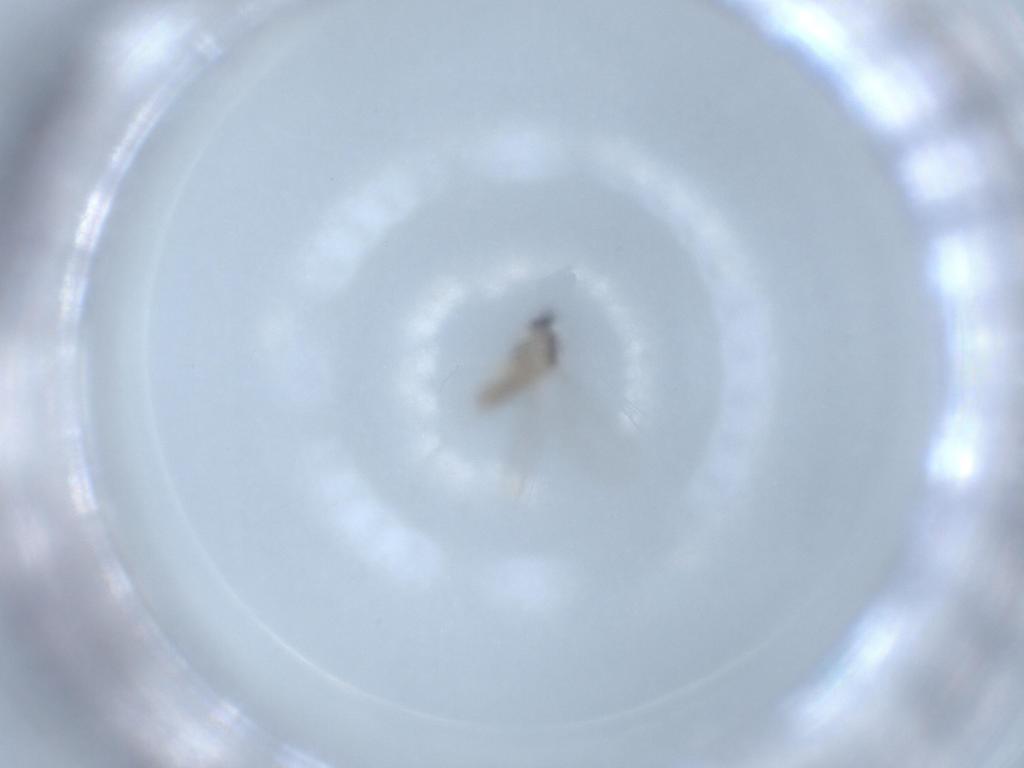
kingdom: Animalia
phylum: Arthropoda
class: Insecta
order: Diptera
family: Cecidomyiidae
